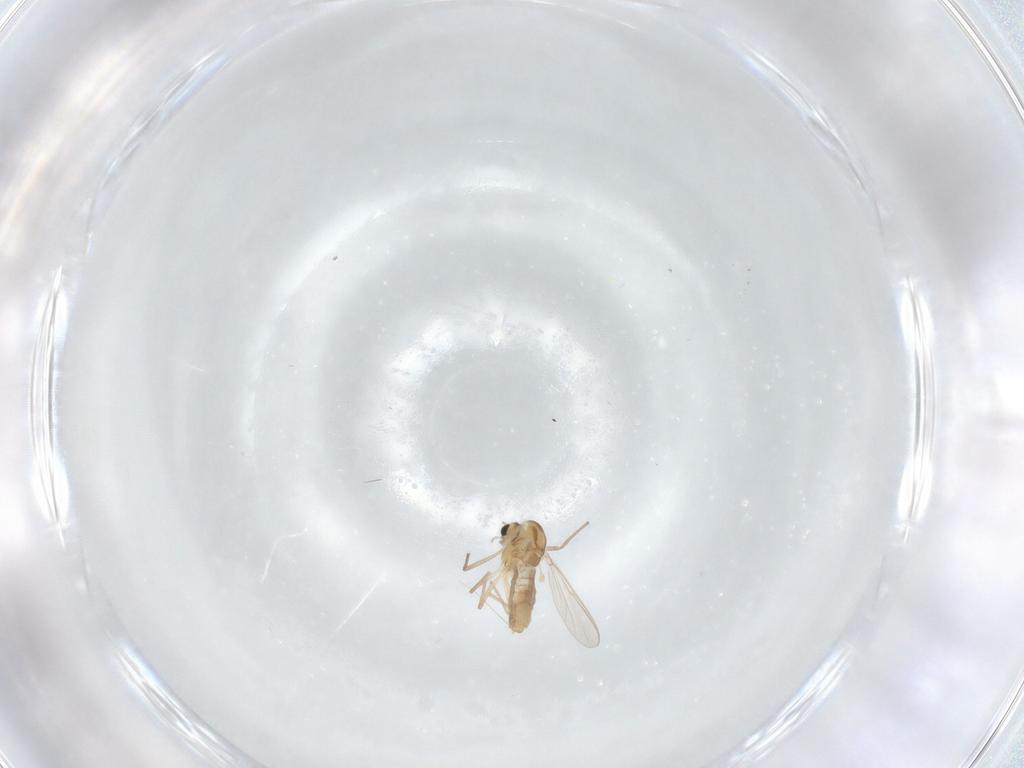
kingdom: Animalia
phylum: Arthropoda
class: Insecta
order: Diptera
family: Chironomidae
